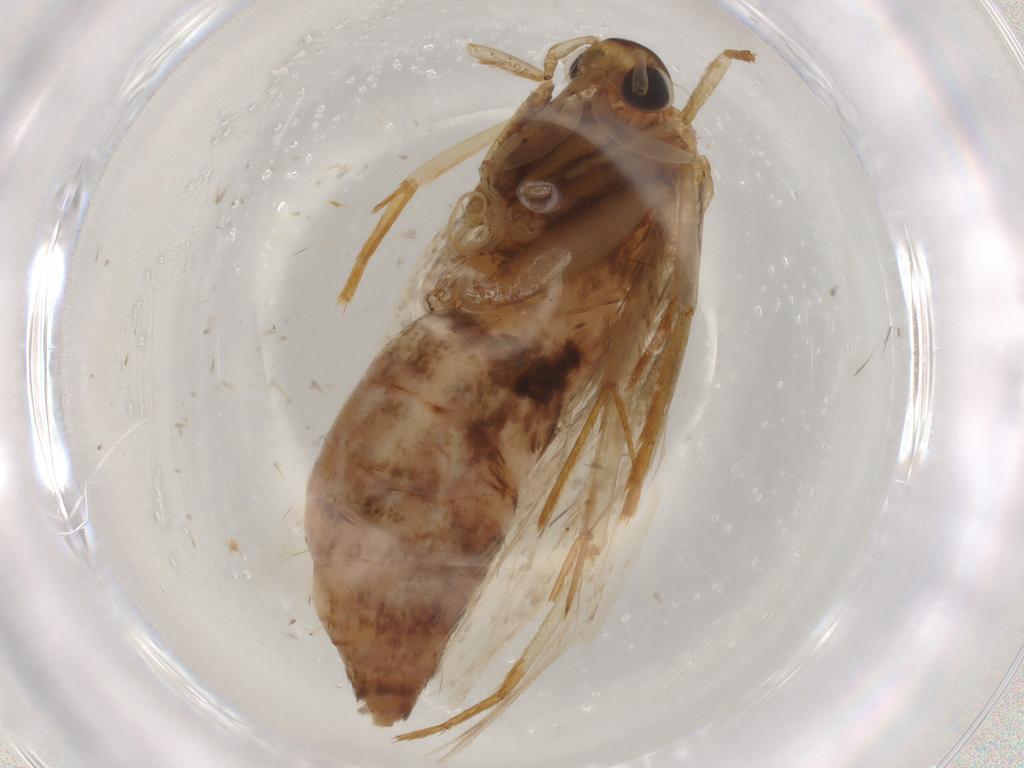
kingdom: Animalia
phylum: Arthropoda
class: Insecta
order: Lepidoptera
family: Lecithoceridae
